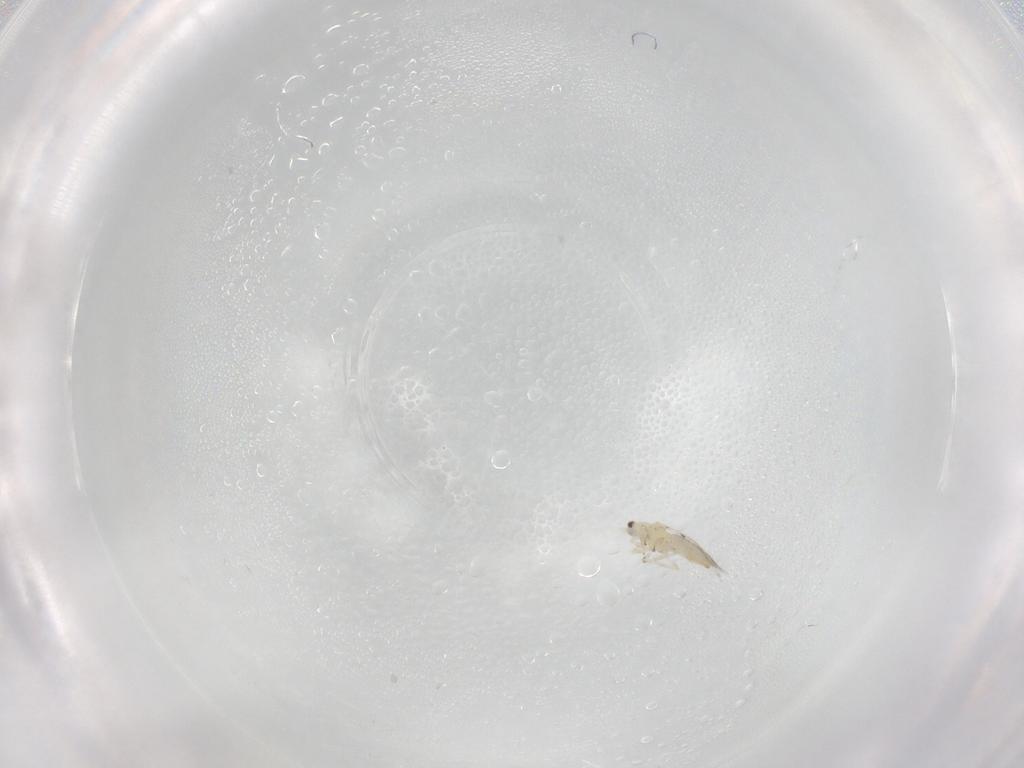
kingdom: Animalia
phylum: Arthropoda
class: Insecta
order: Thysanoptera
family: Thripidae
